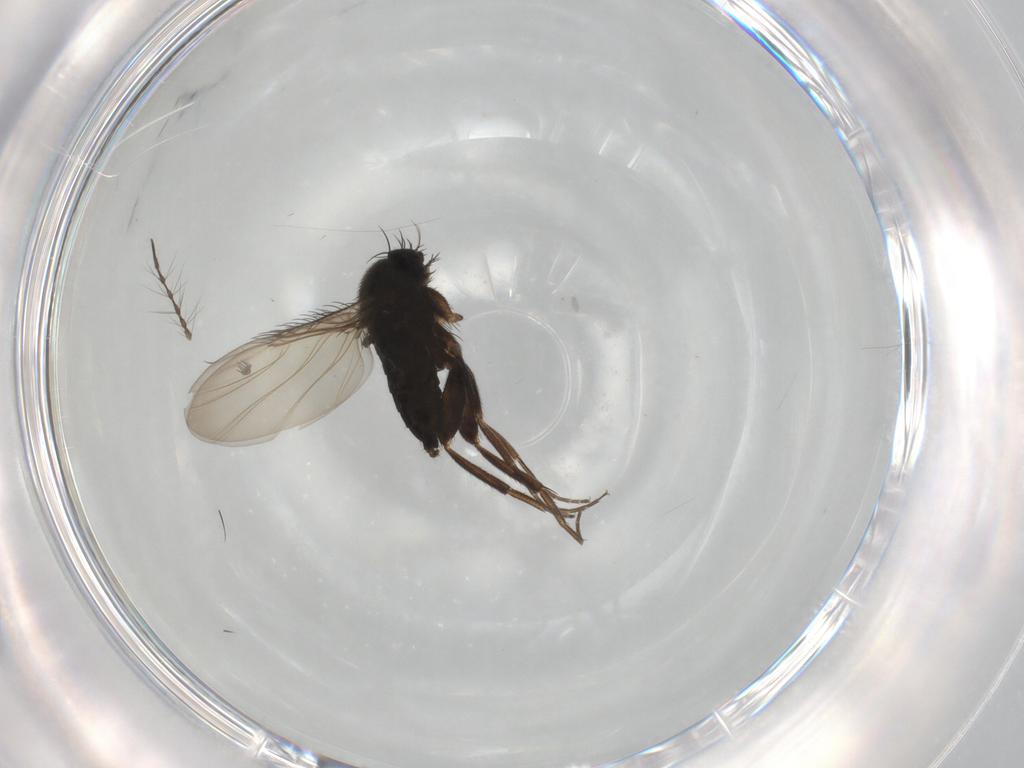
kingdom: Animalia
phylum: Arthropoda
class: Insecta
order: Diptera
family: Phoridae
